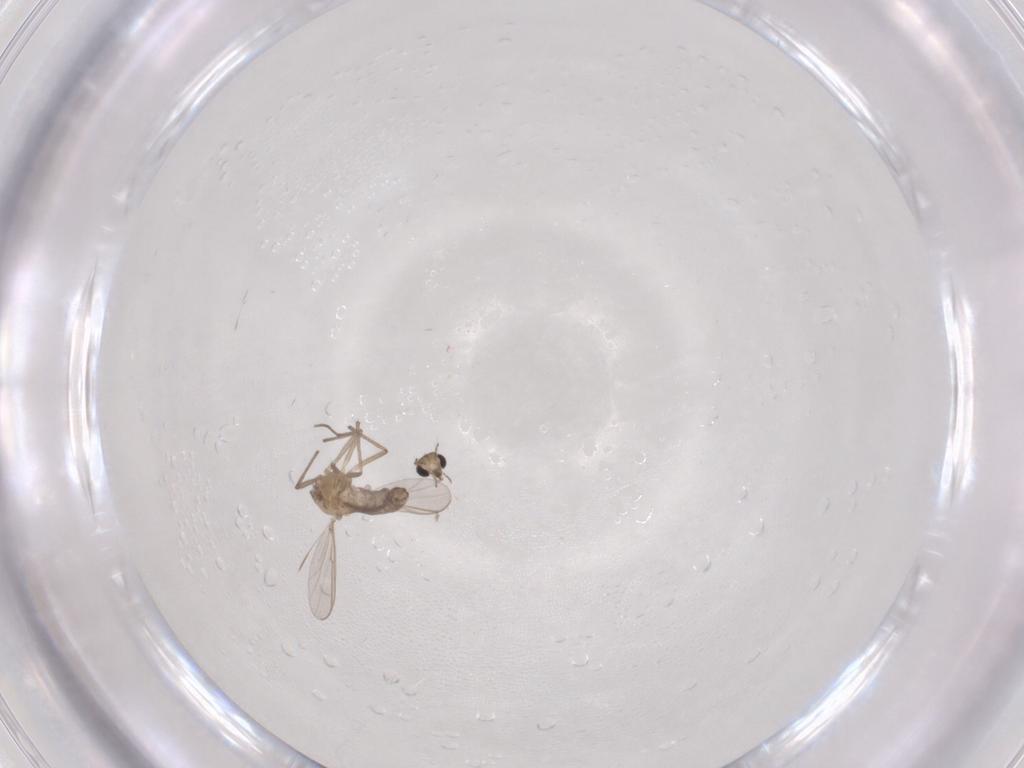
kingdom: Animalia
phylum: Arthropoda
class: Insecta
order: Diptera
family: Chironomidae
